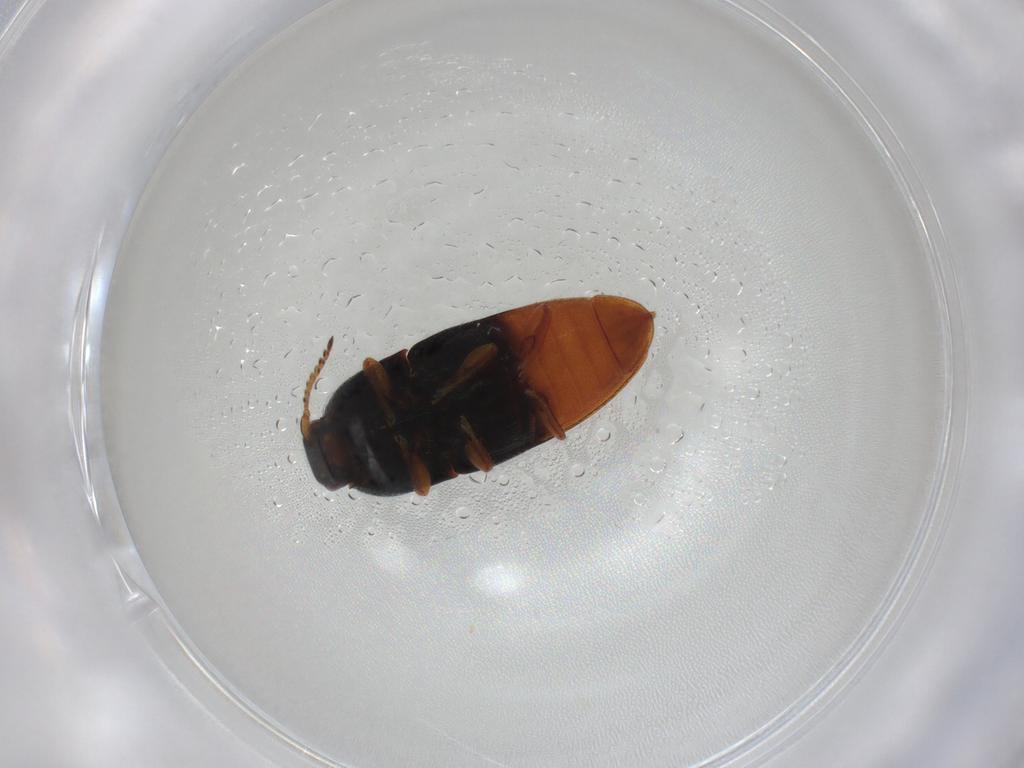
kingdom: Animalia
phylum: Arthropoda
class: Insecta
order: Coleoptera
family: Elateridae
